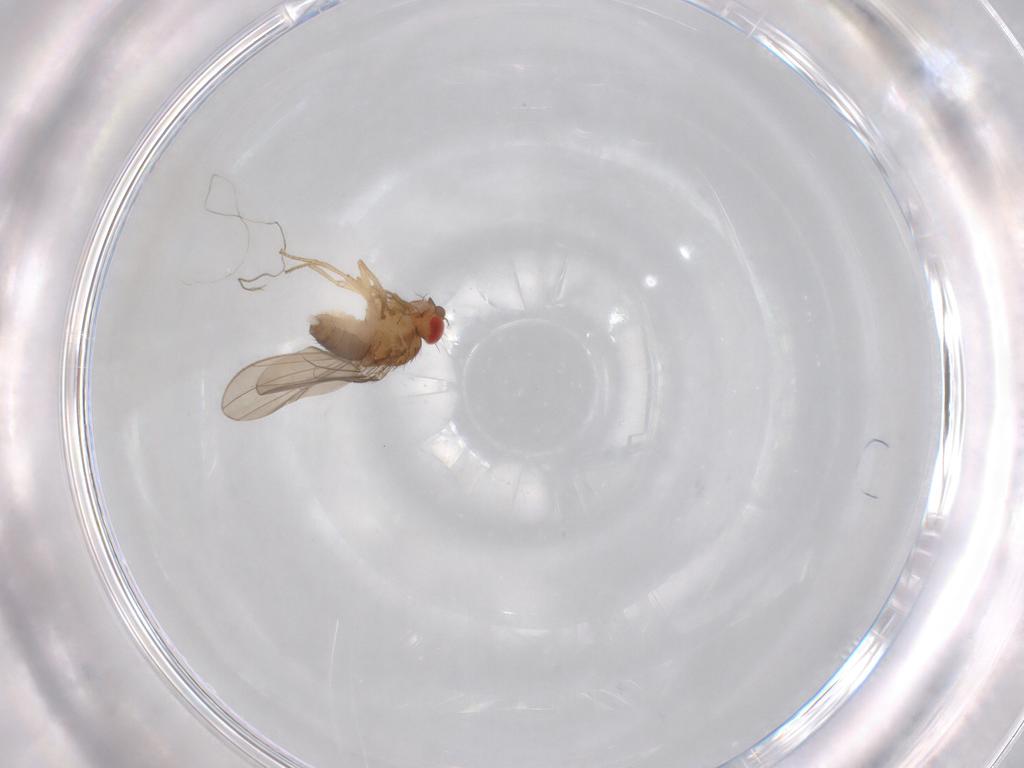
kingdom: Animalia
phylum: Arthropoda
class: Insecta
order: Diptera
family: Drosophilidae
